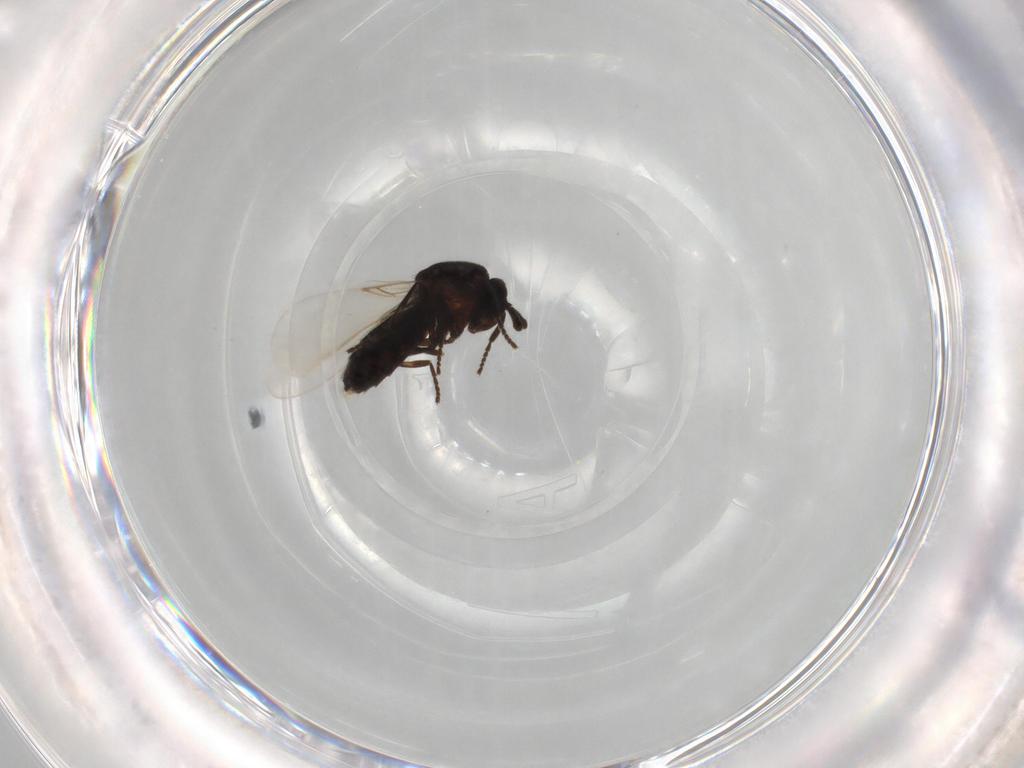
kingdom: Animalia
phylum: Arthropoda
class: Insecta
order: Diptera
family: Scatopsidae
